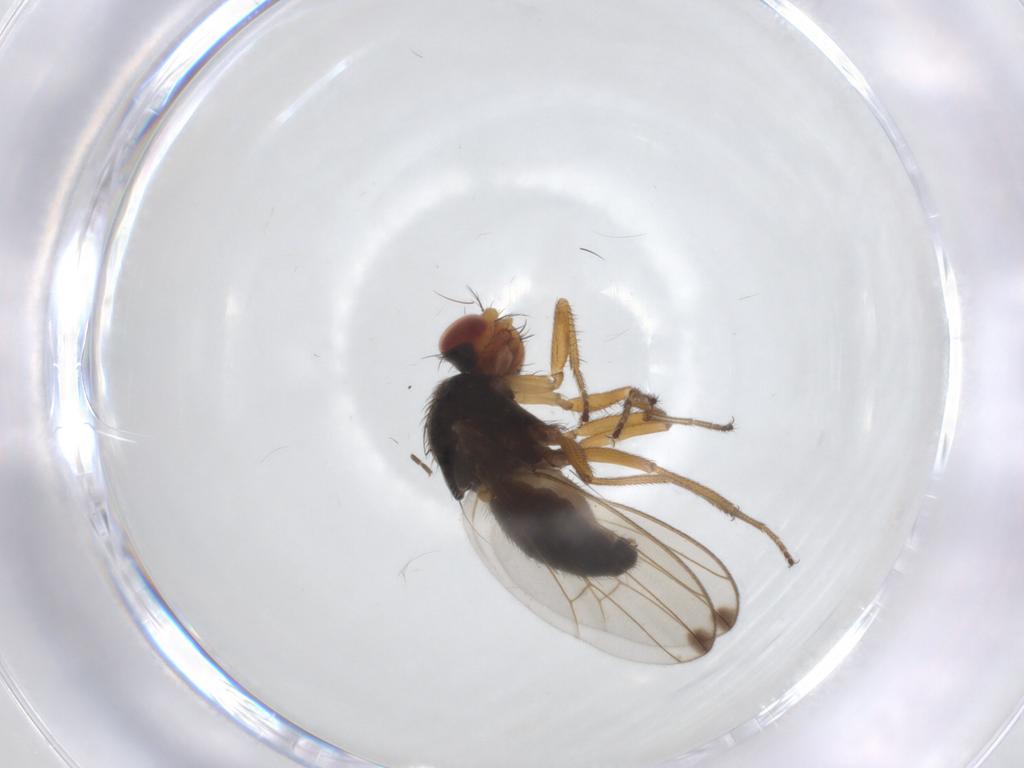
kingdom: Animalia
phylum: Arthropoda
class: Insecta
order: Diptera
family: Drosophilidae
